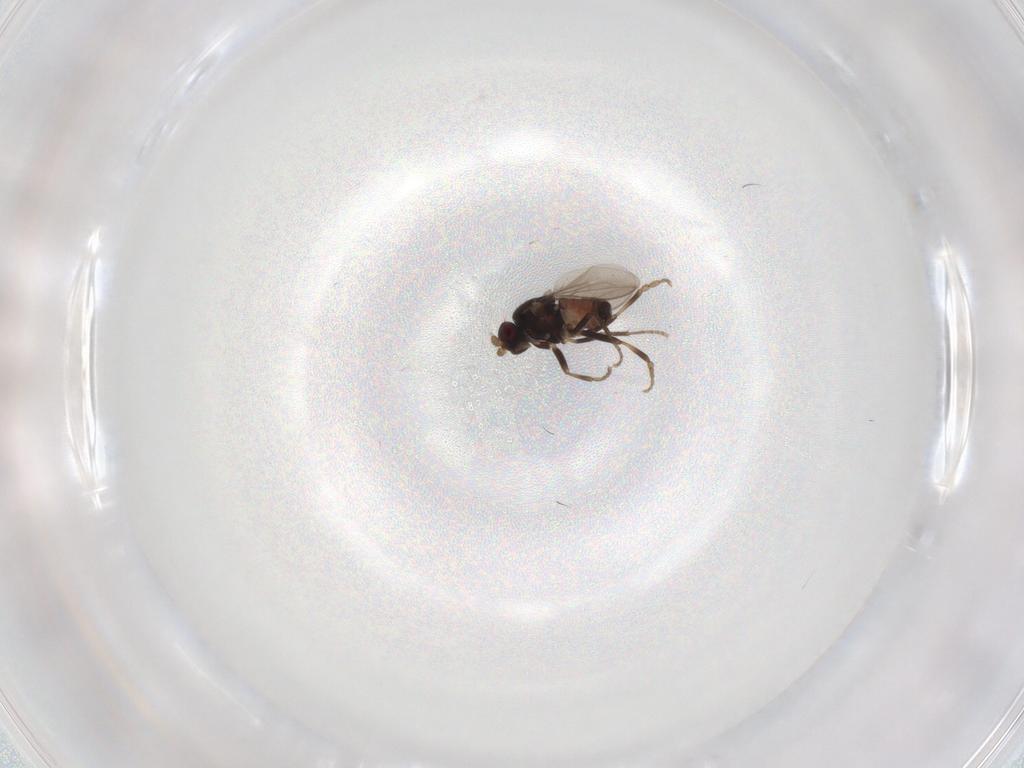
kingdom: Animalia
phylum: Arthropoda
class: Insecta
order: Diptera
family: Sphaeroceridae
